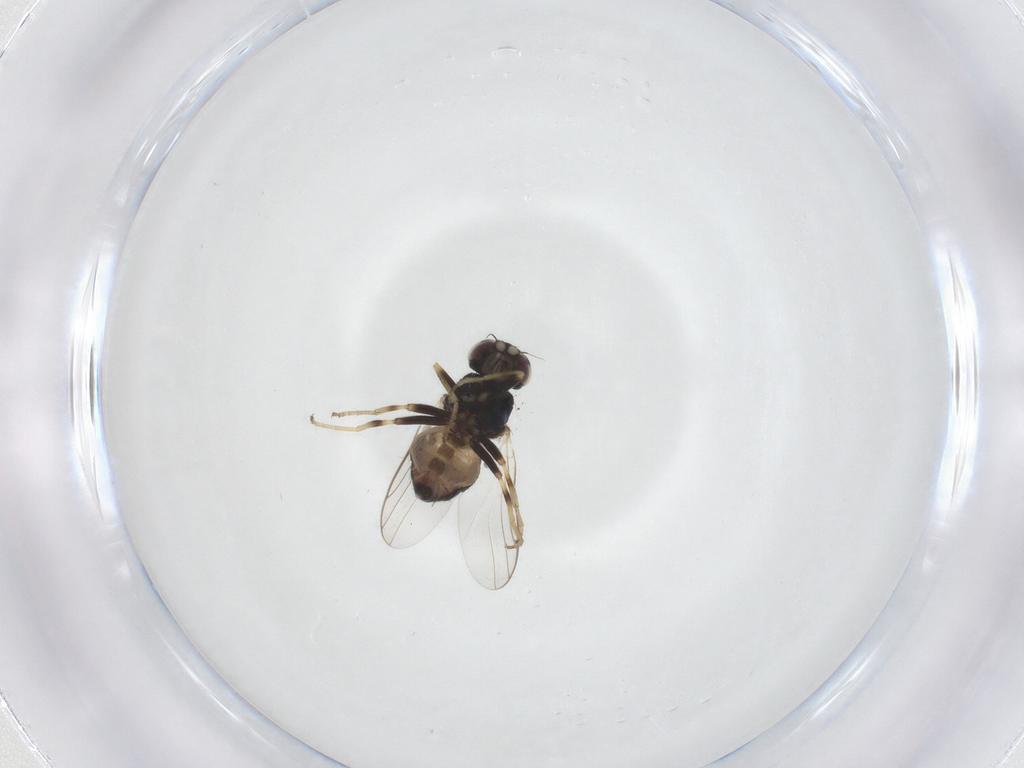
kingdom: Animalia
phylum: Arthropoda
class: Insecta
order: Diptera
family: Chloropidae
